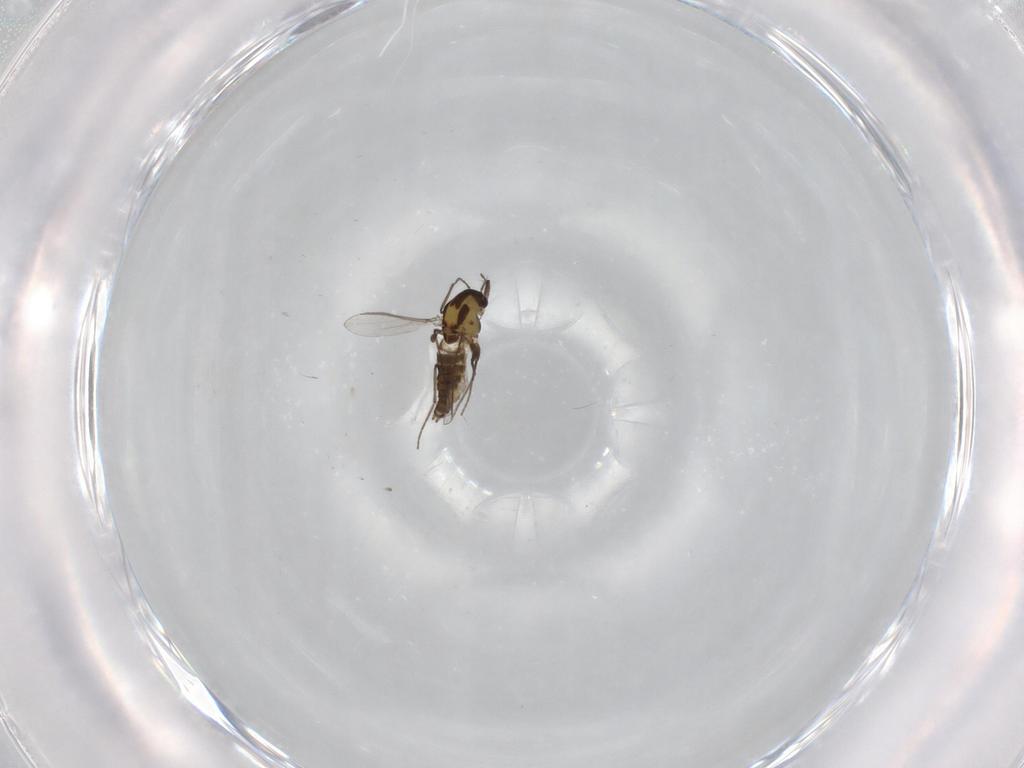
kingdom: Animalia
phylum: Arthropoda
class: Insecta
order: Diptera
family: Chironomidae
